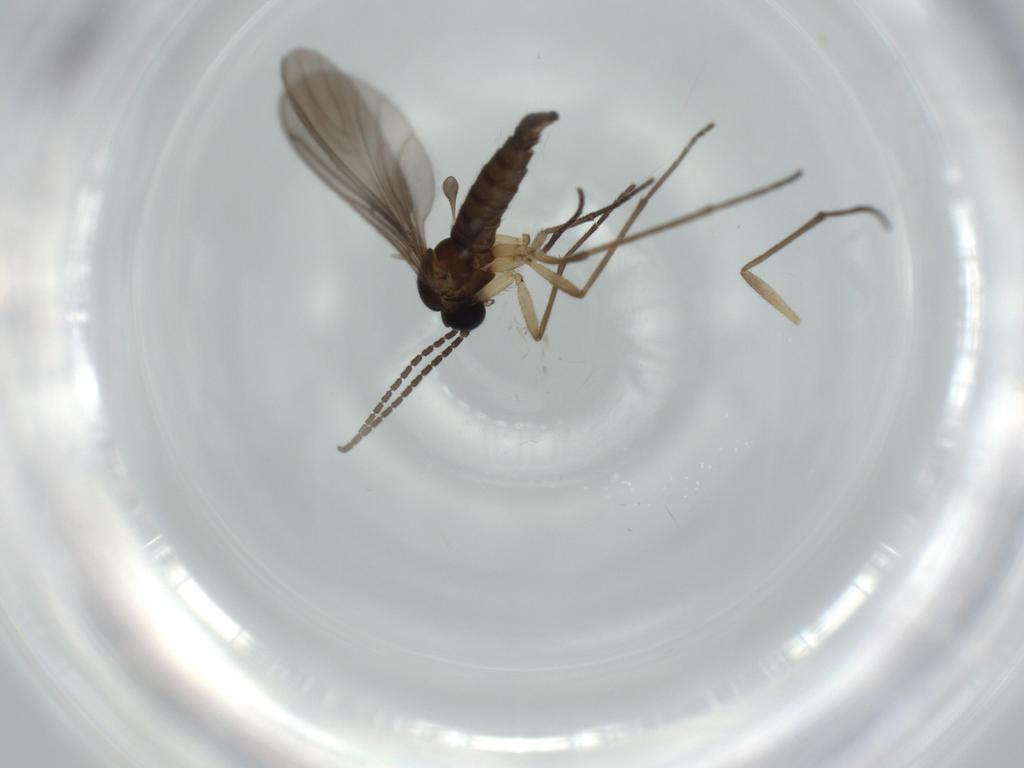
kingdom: Animalia
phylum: Arthropoda
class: Insecta
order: Diptera
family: Sciaridae
